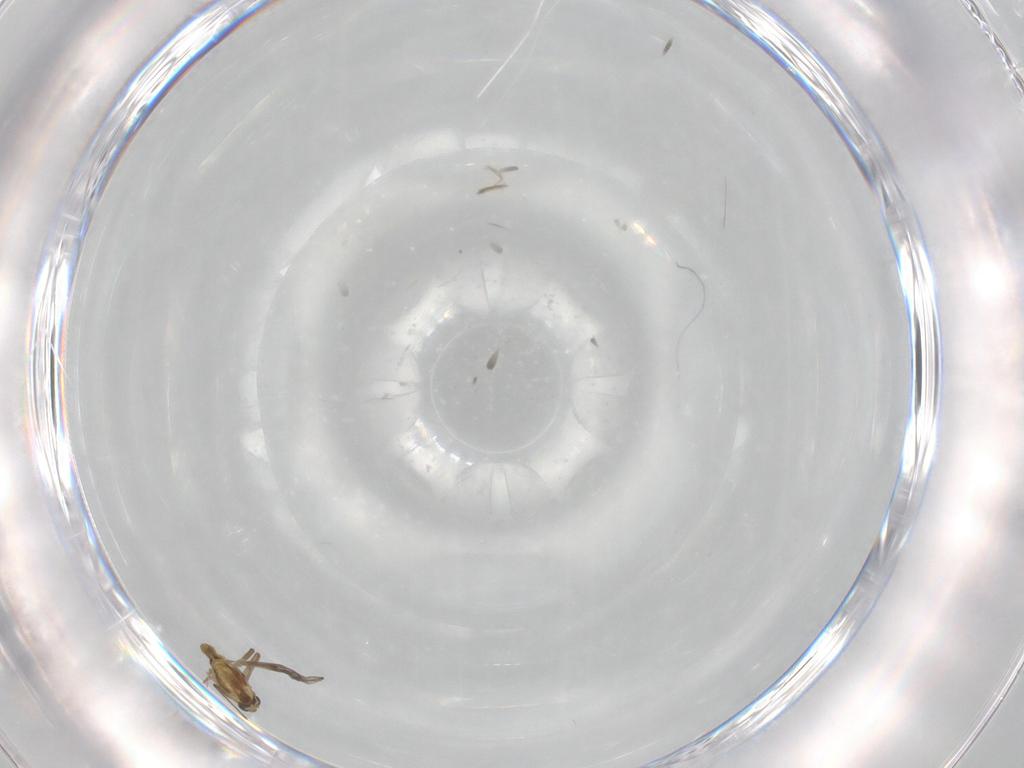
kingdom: Animalia
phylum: Arthropoda
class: Insecta
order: Diptera
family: Chironomidae
